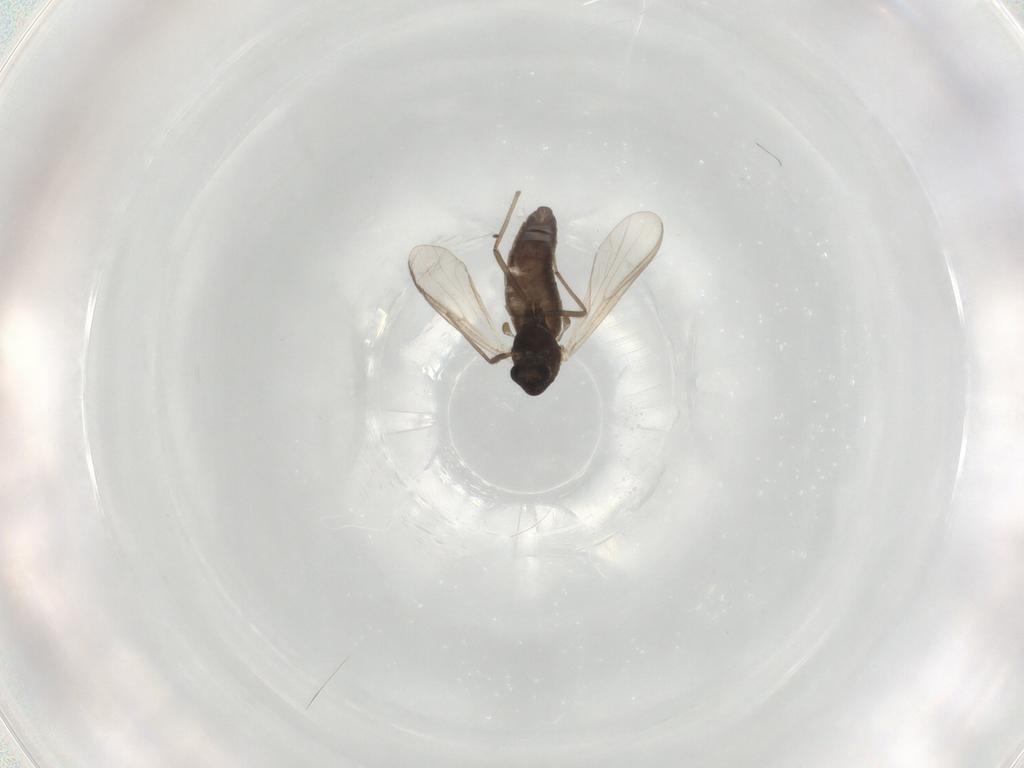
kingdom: Animalia
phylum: Arthropoda
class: Insecta
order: Diptera
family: Chironomidae
